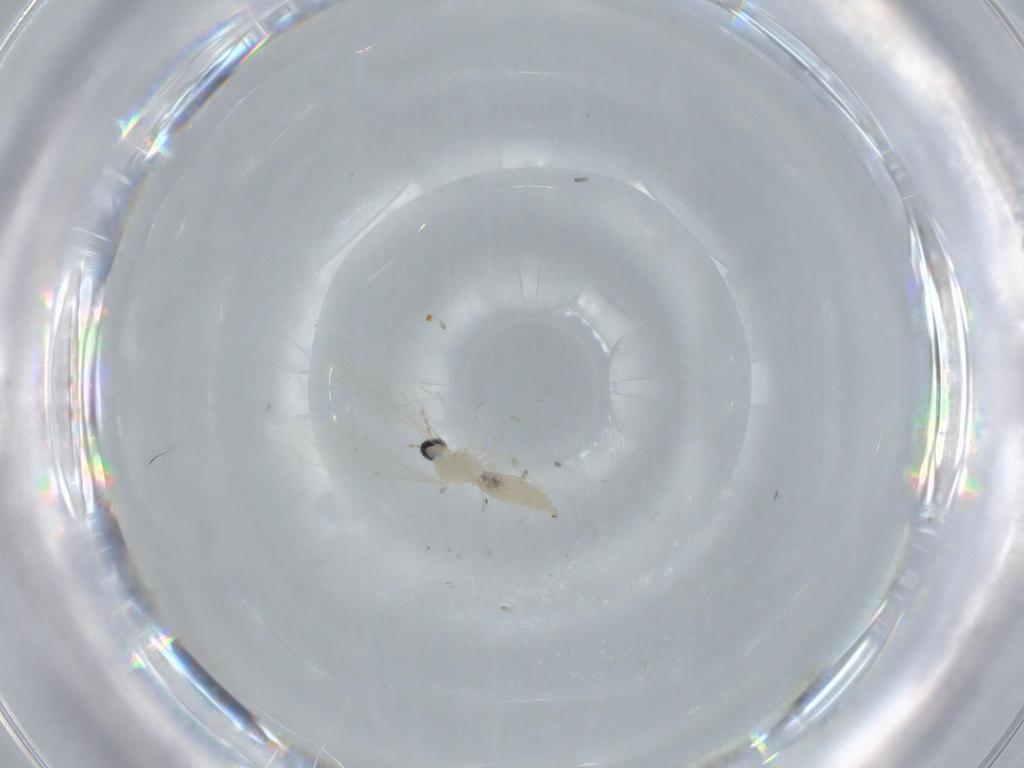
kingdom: Animalia
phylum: Arthropoda
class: Insecta
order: Diptera
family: Milichiidae
